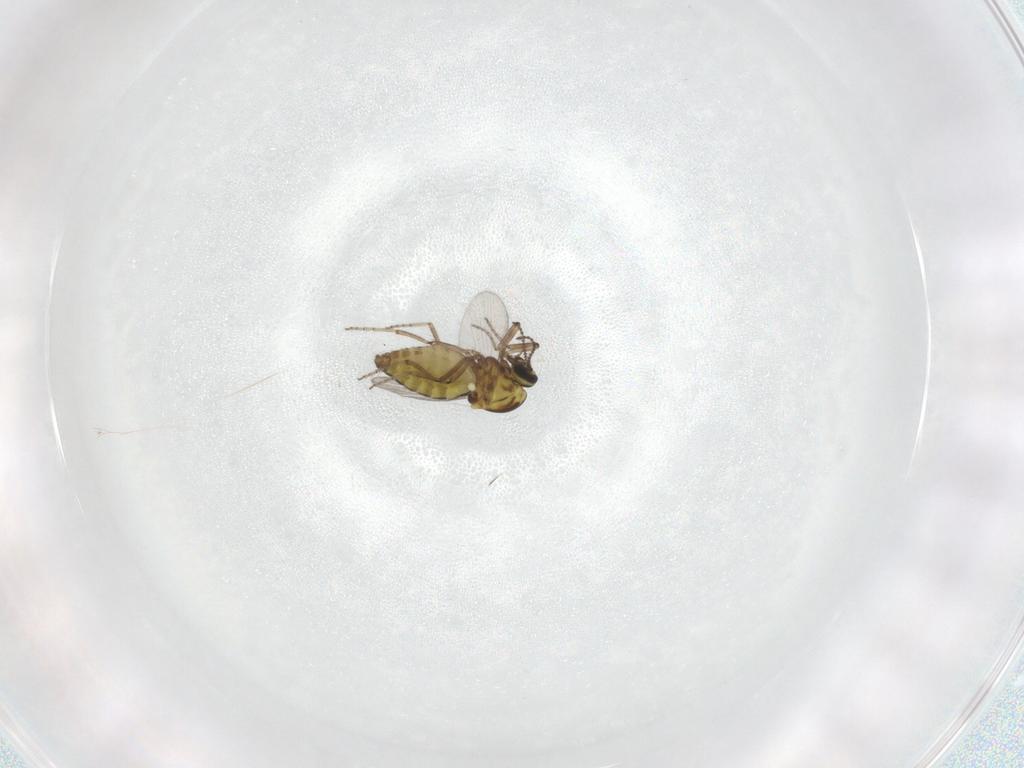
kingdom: Animalia
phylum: Arthropoda
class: Insecta
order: Diptera
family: Ceratopogonidae
